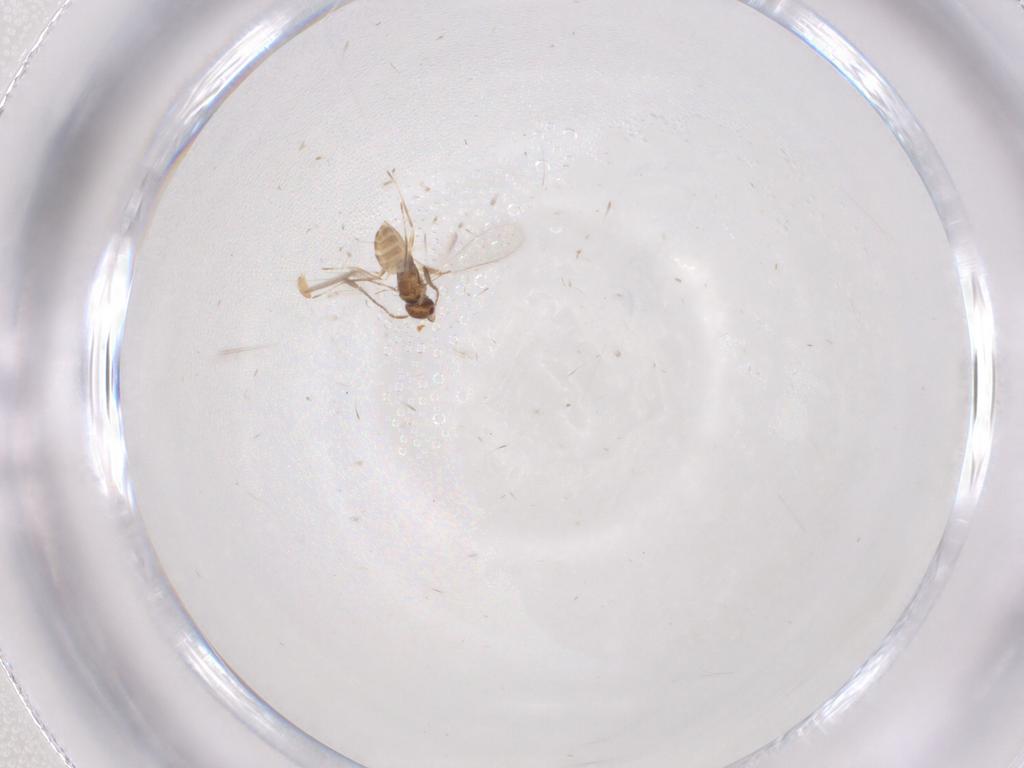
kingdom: Animalia
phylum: Arthropoda
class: Insecta
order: Hymenoptera
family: Mymaridae
